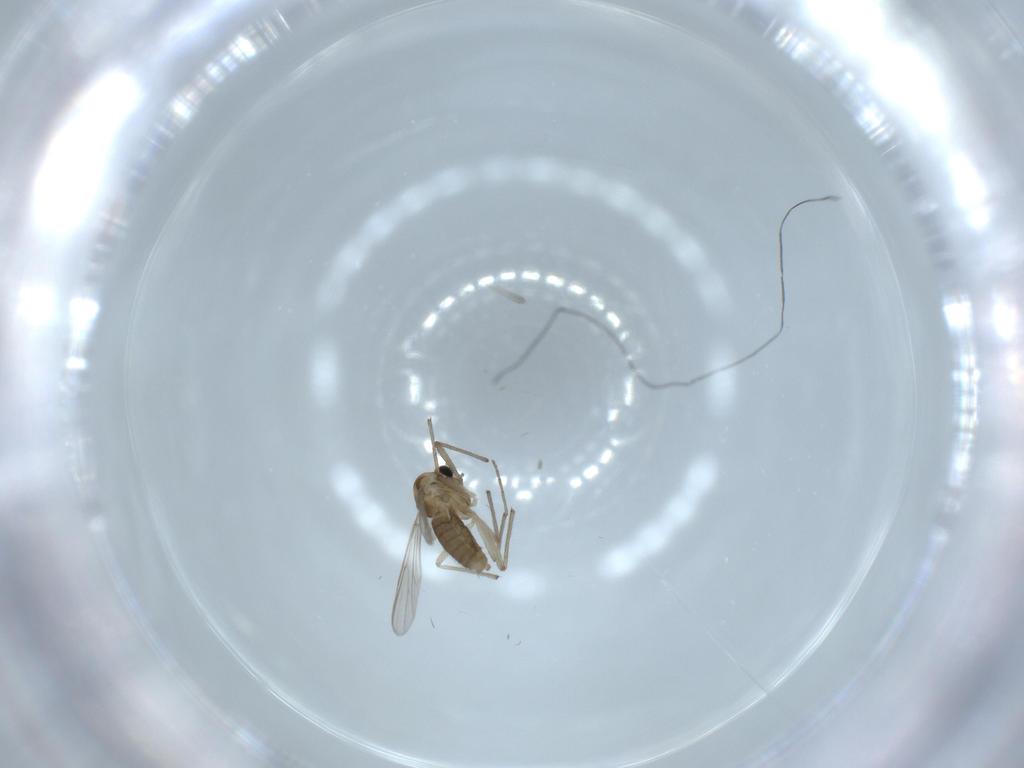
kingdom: Animalia
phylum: Arthropoda
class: Insecta
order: Diptera
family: Chironomidae
